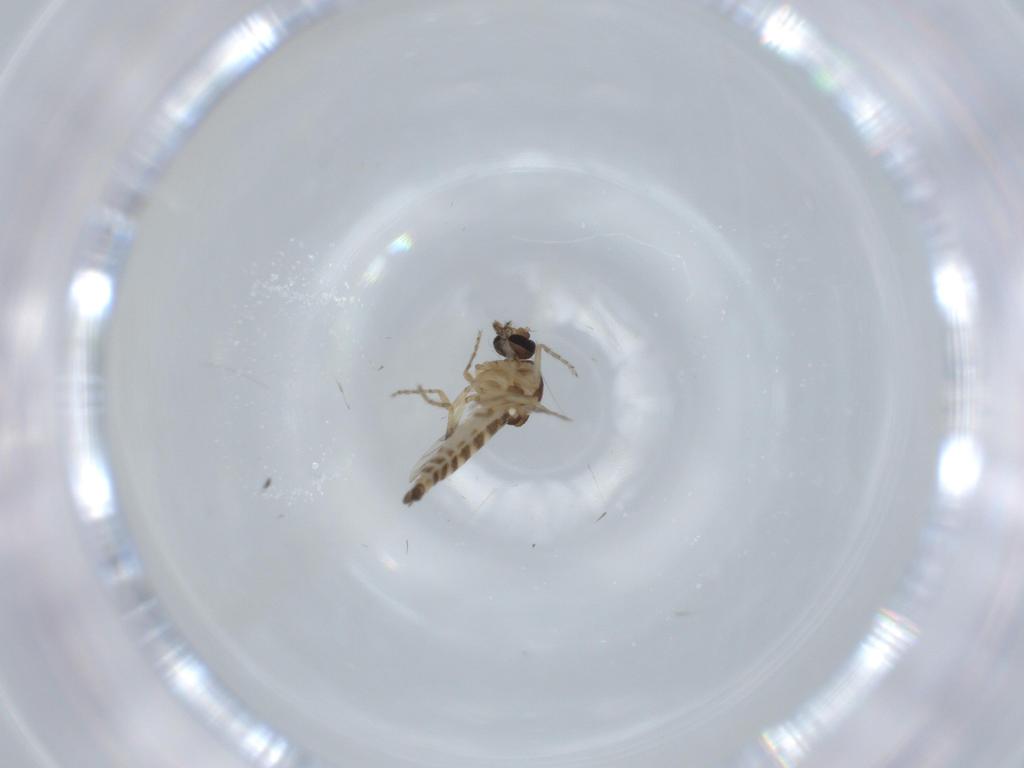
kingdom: Animalia
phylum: Arthropoda
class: Insecta
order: Diptera
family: Ceratopogonidae
